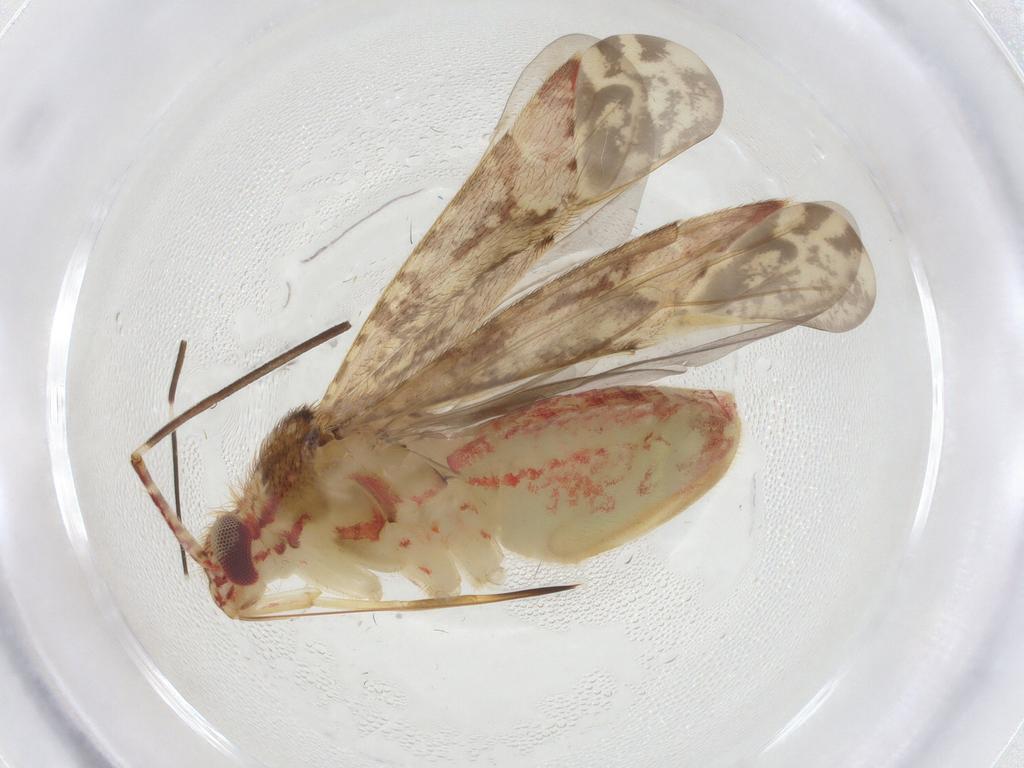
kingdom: Animalia
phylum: Arthropoda
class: Insecta
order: Hemiptera
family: Miridae
